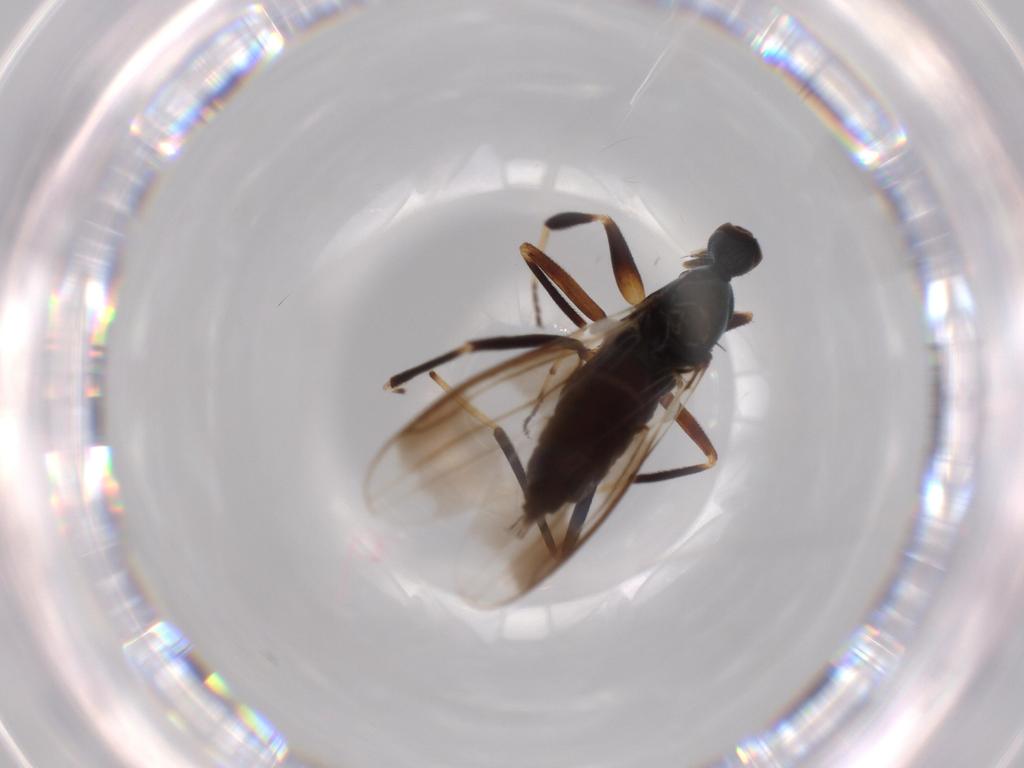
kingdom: Animalia
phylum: Arthropoda
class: Insecta
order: Diptera
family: Hybotidae
